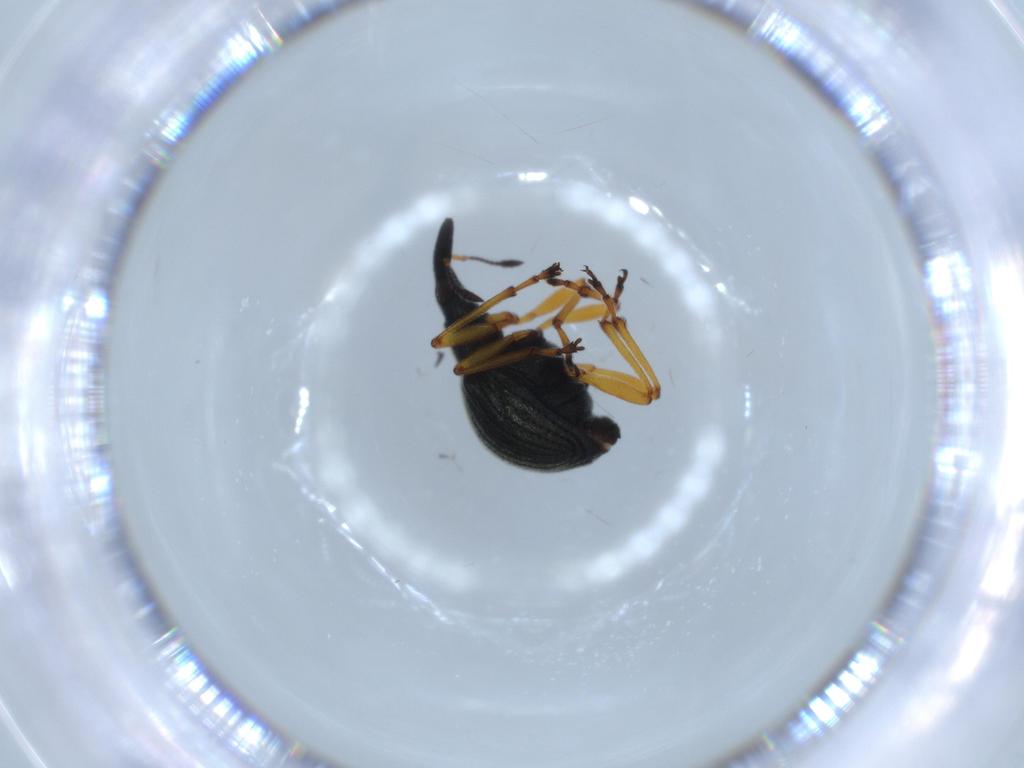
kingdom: Animalia
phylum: Arthropoda
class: Insecta
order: Coleoptera
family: Brentidae
